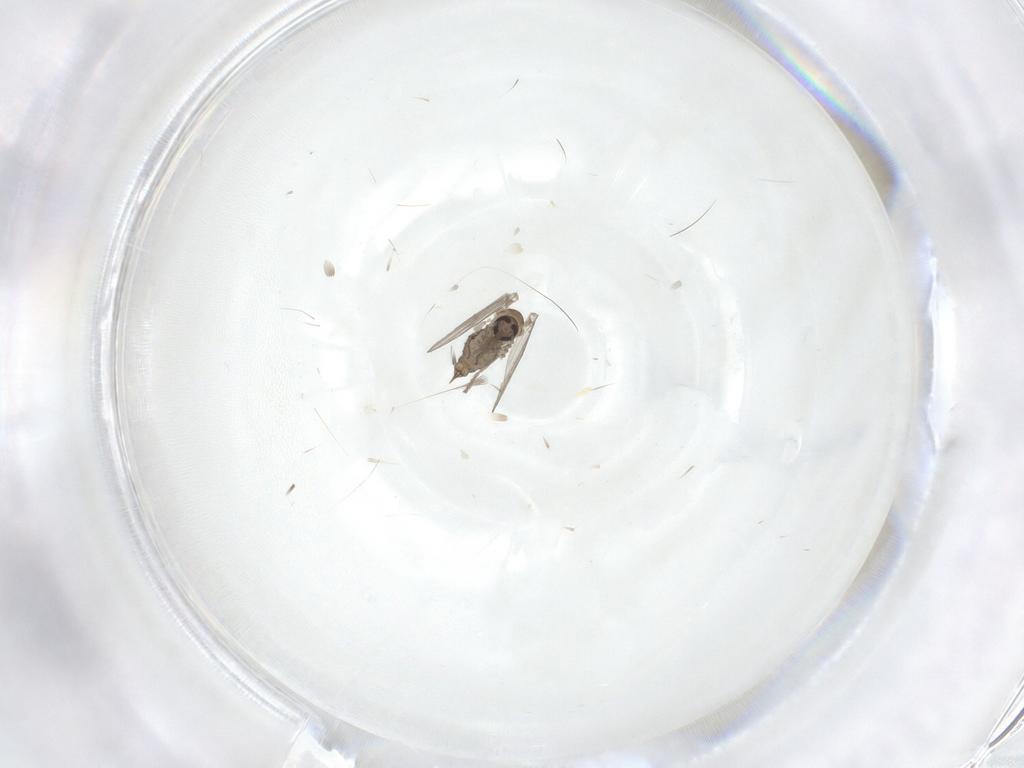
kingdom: Animalia
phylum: Arthropoda
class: Insecta
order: Diptera
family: Psychodidae
